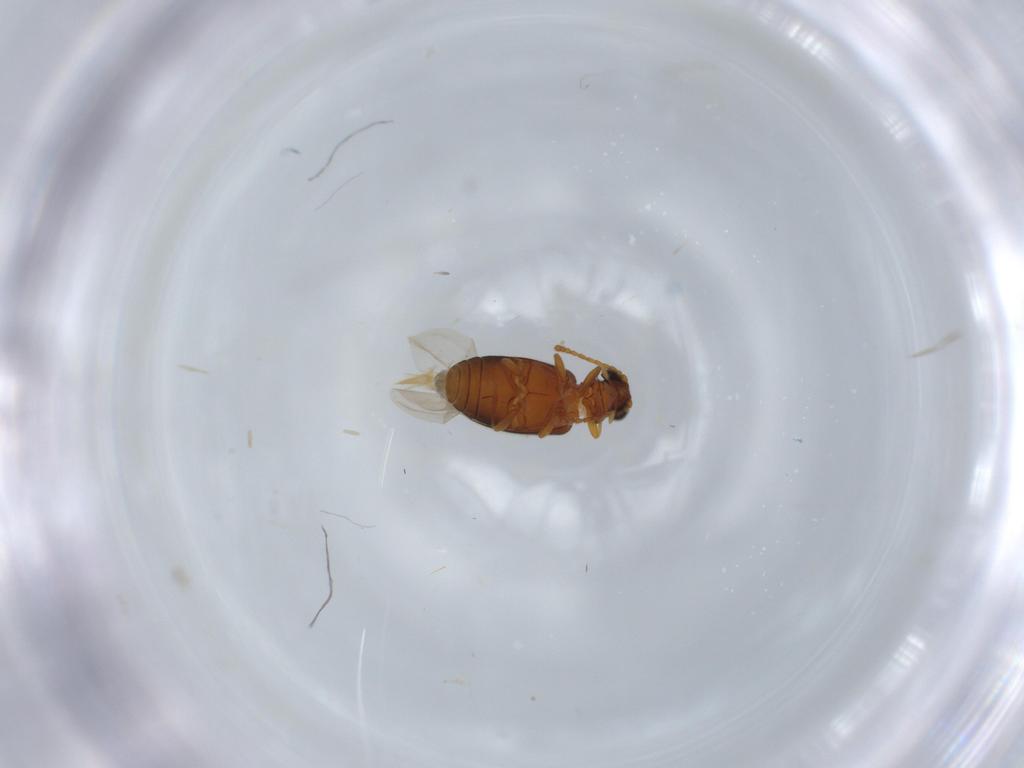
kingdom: Animalia
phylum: Arthropoda
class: Insecta
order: Coleoptera
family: Aderidae
